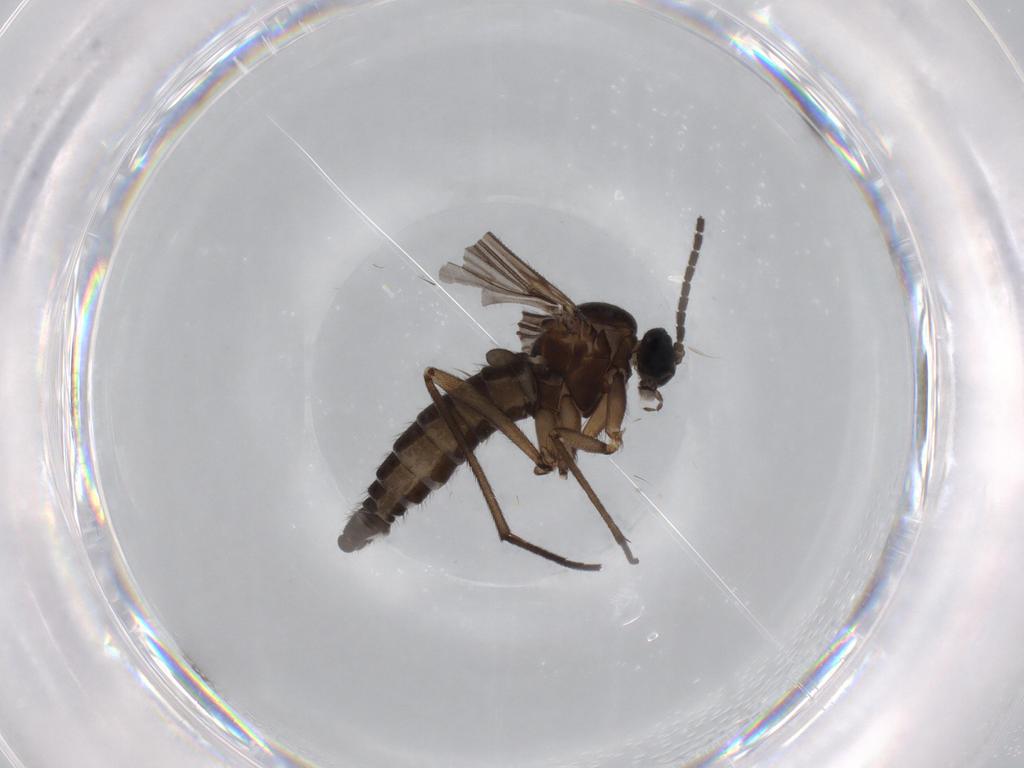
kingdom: Animalia
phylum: Arthropoda
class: Insecta
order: Diptera
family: Sciaridae
